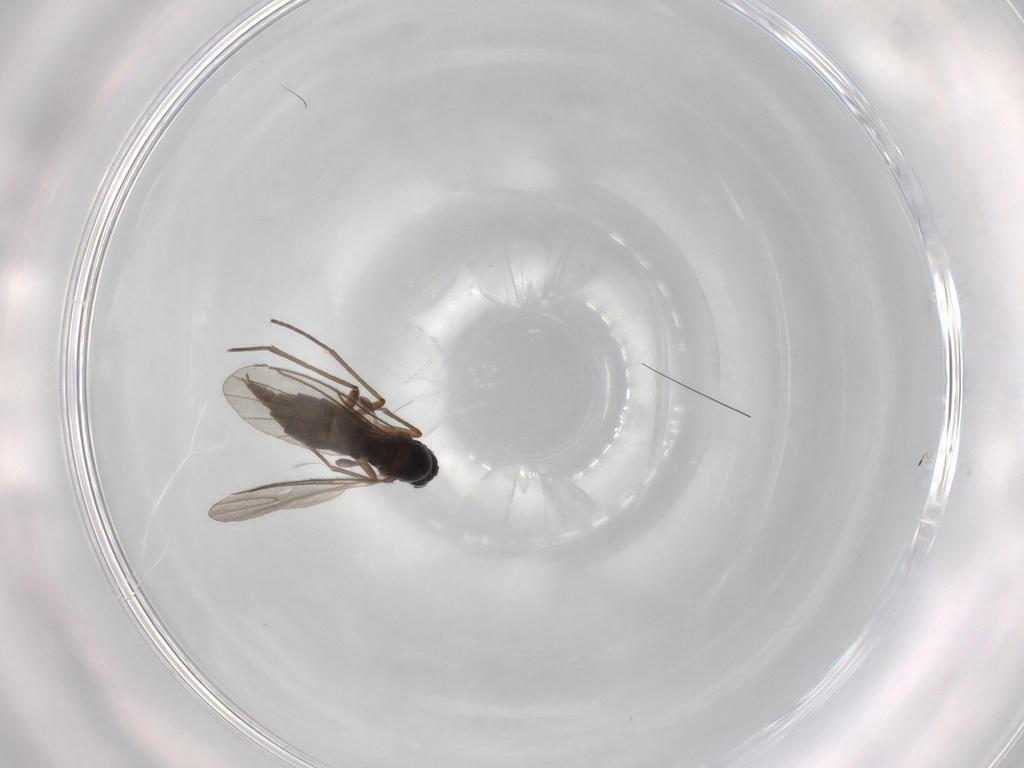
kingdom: Animalia
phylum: Arthropoda
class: Insecta
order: Diptera
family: Sciaridae
